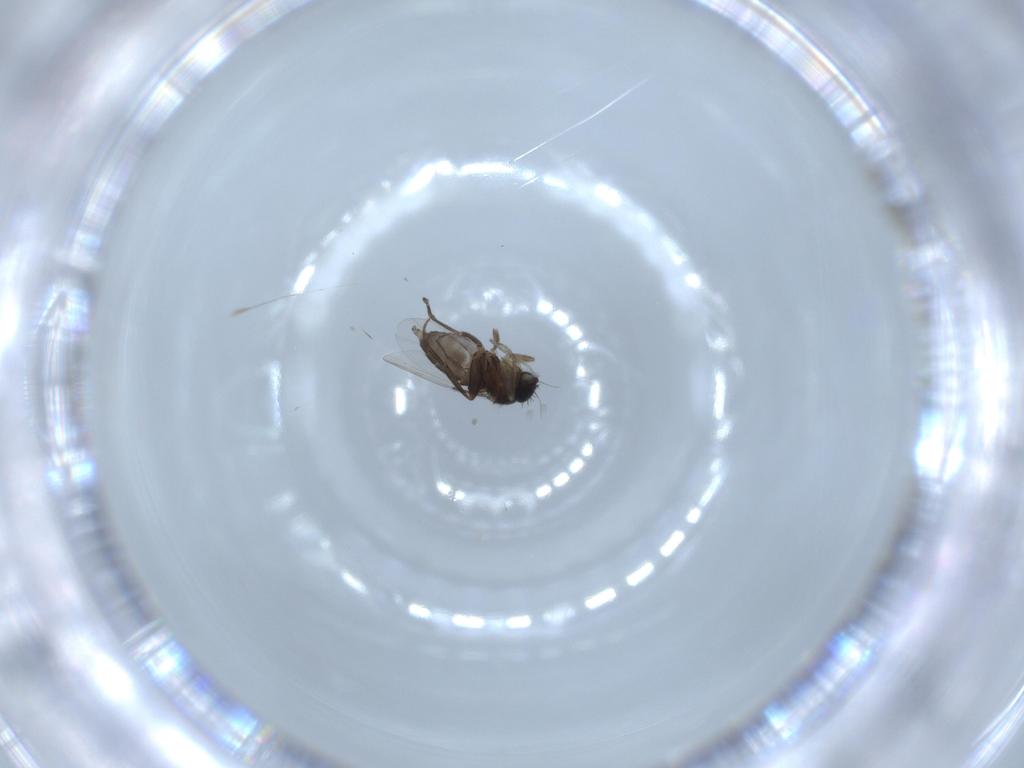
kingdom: Animalia
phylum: Arthropoda
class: Insecta
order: Diptera
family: Phoridae
